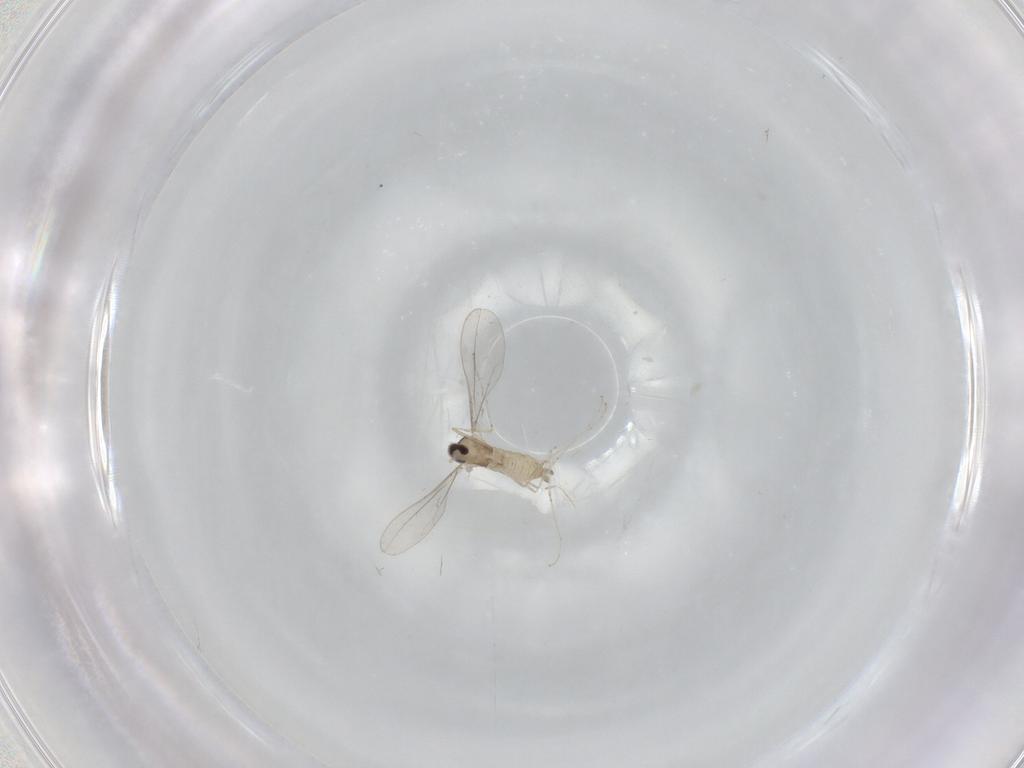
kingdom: Animalia
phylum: Arthropoda
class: Insecta
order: Diptera
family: Cecidomyiidae
